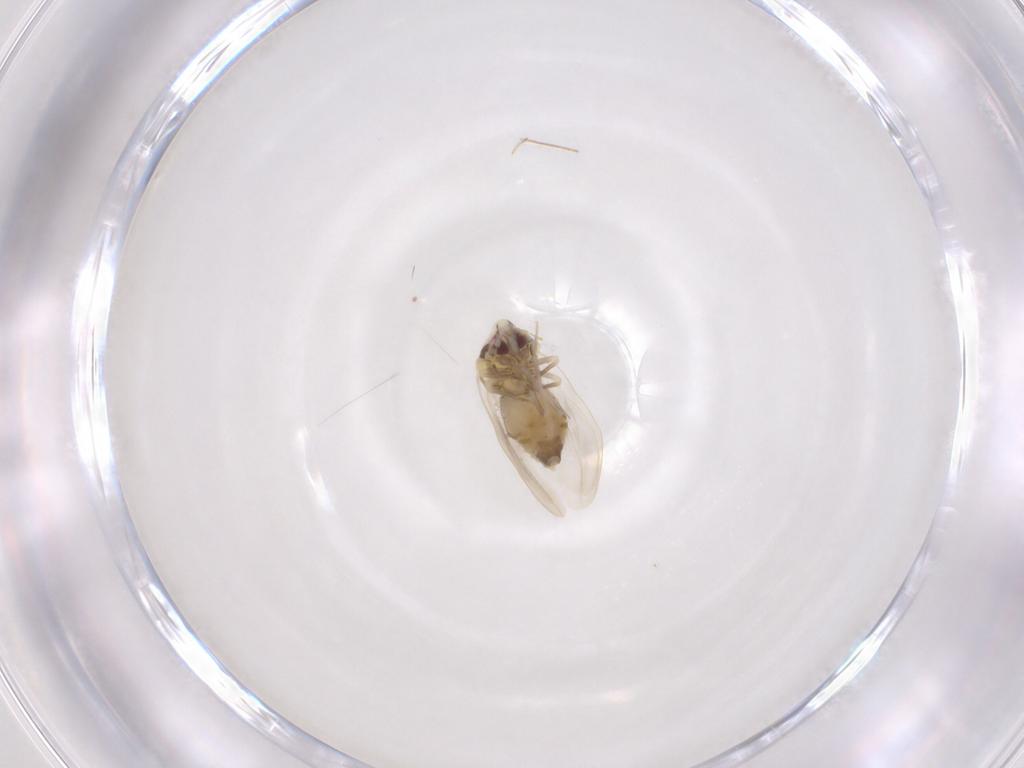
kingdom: Animalia
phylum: Arthropoda
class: Insecta
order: Hemiptera
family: Aleyrodidae
